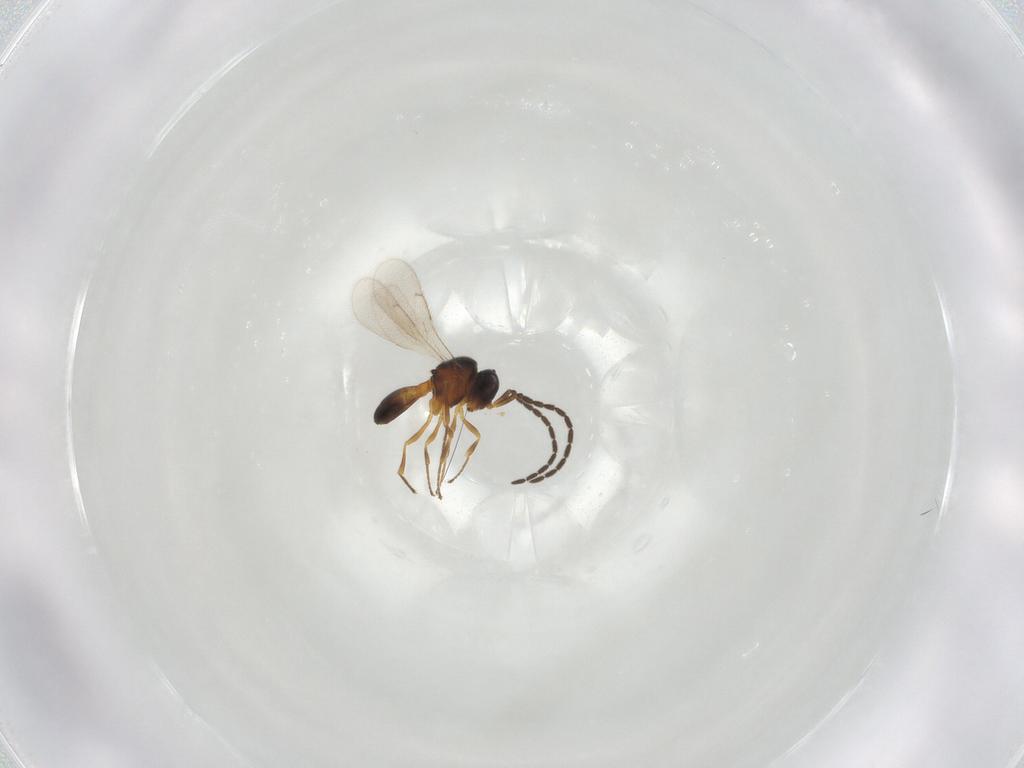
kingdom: Animalia
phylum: Arthropoda
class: Insecta
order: Hymenoptera
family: Scelionidae
